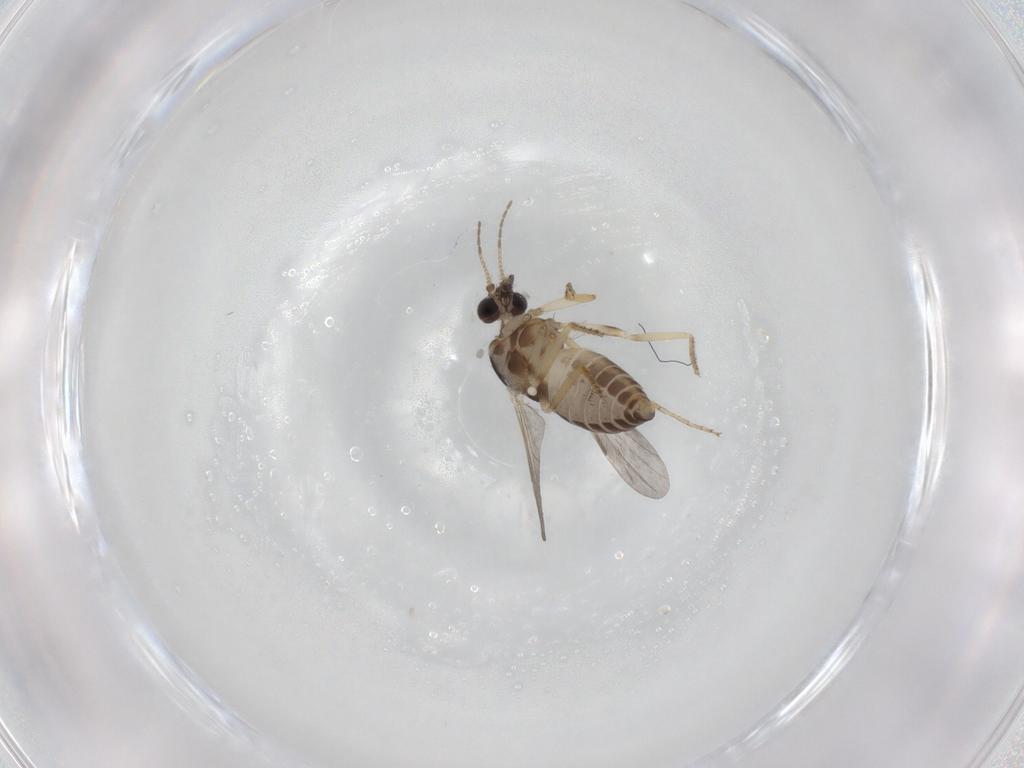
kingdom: Animalia
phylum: Arthropoda
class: Insecta
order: Diptera
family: Ceratopogonidae
